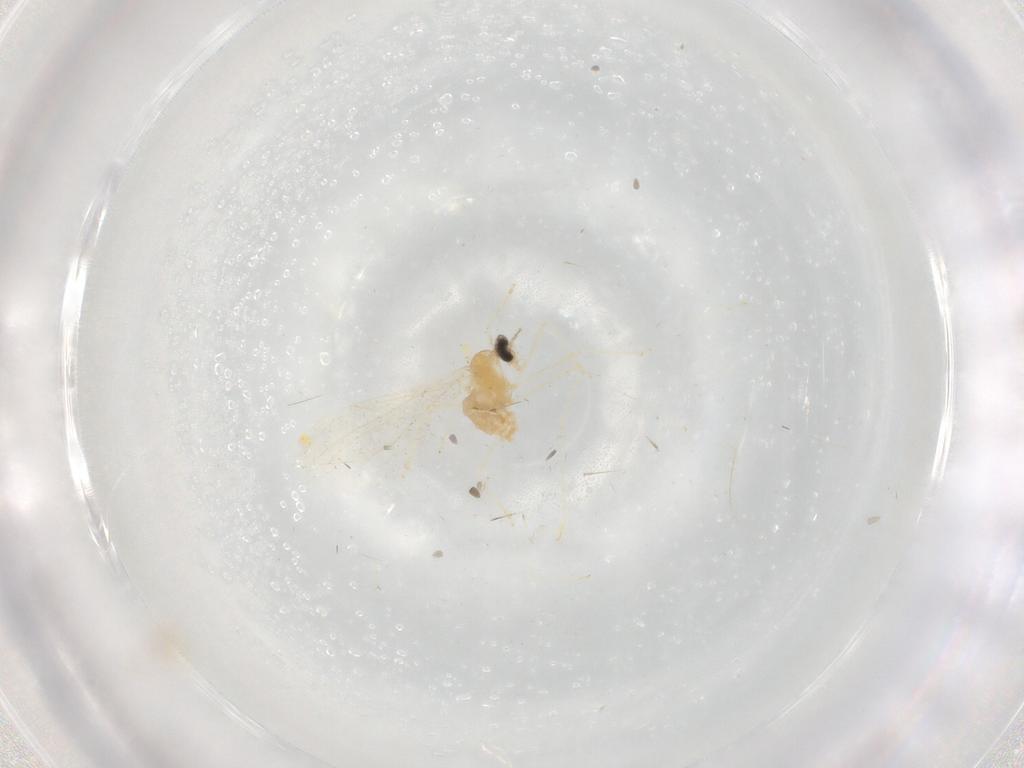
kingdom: Animalia
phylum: Arthropoda
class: Insecta
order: Diptera
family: Cecidomyiidae
